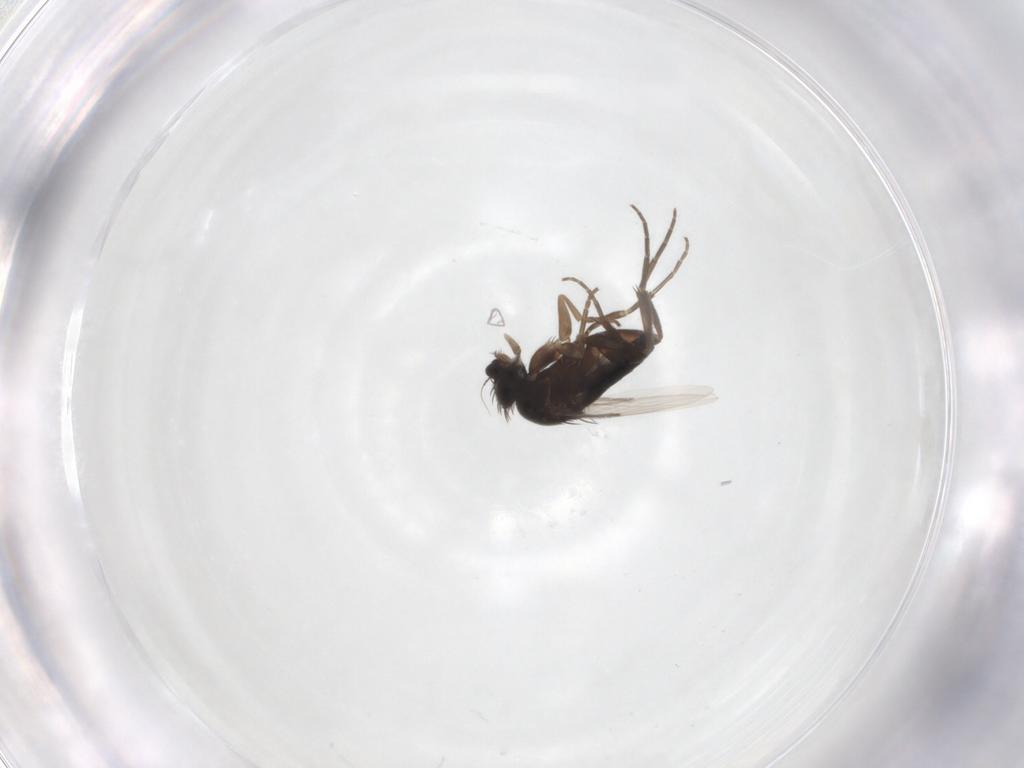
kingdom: Animalia
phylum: Arthropoda
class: Insecta
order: Diptera
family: Phoridae
